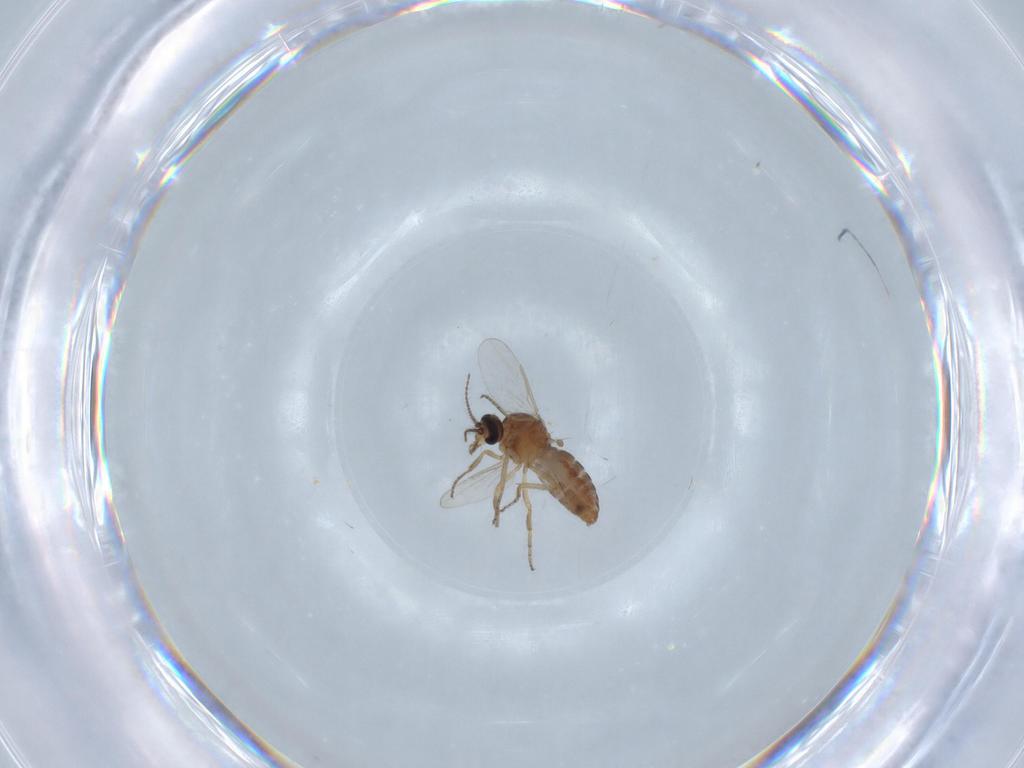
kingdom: Animalia
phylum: Arthropoda
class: Insecta
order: Diptera
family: Ceratopogonidae
